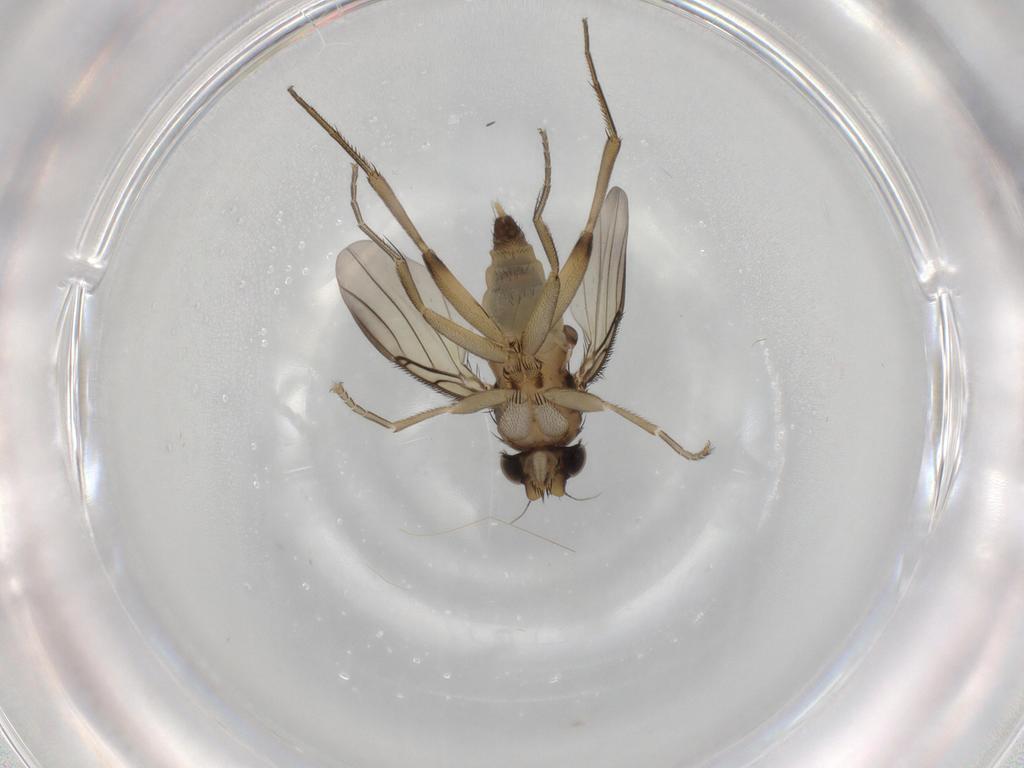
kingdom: Animalia
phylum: Arthropoda
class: Insecta
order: Diptera
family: Phoridae
